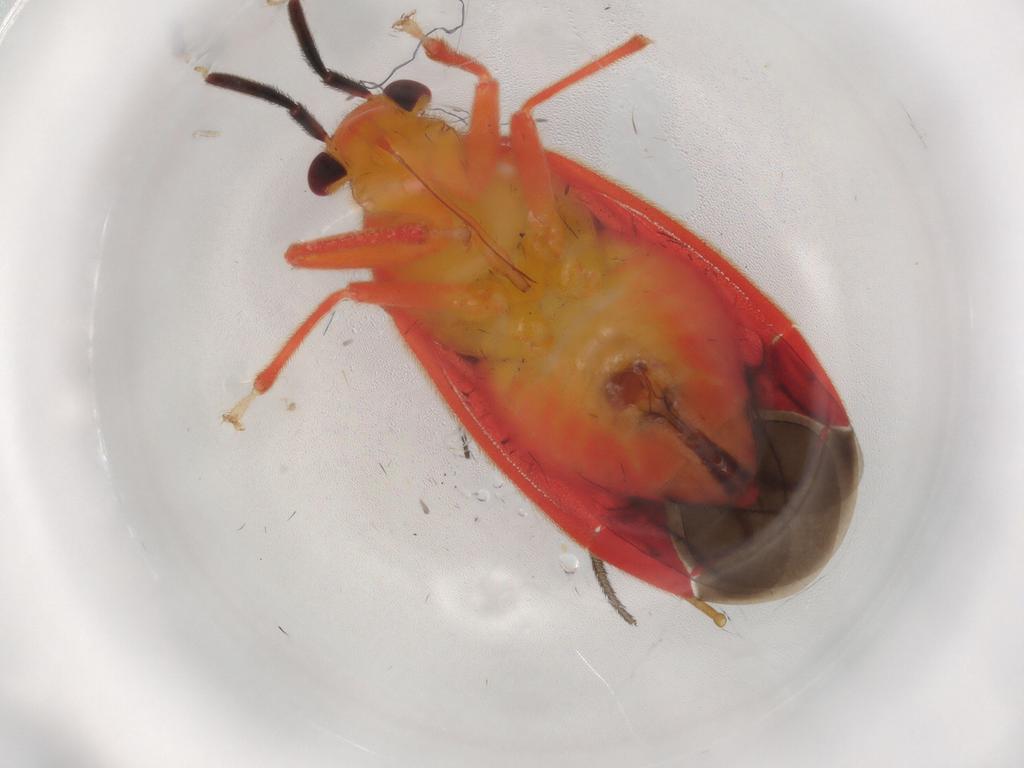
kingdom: Animalia
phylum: Arthropoda
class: Insecta
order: Hemiptera
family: Miridae
